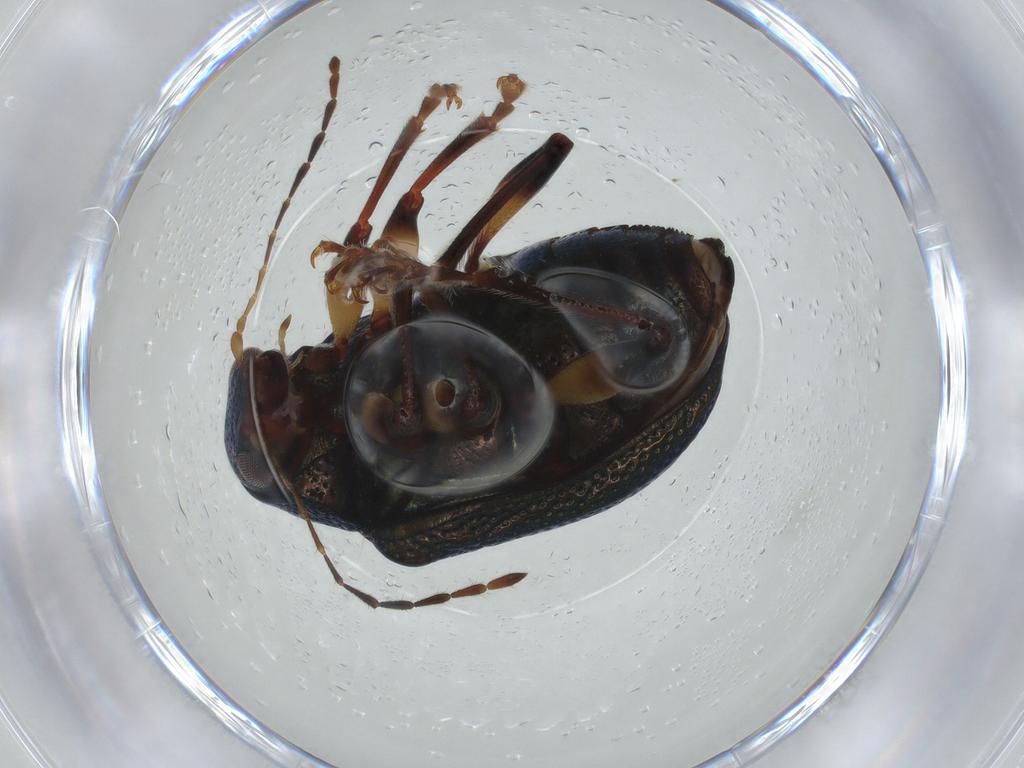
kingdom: Animalia
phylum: Arthropoda
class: Insecta
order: Coleoptera
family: Chrysomelidae
